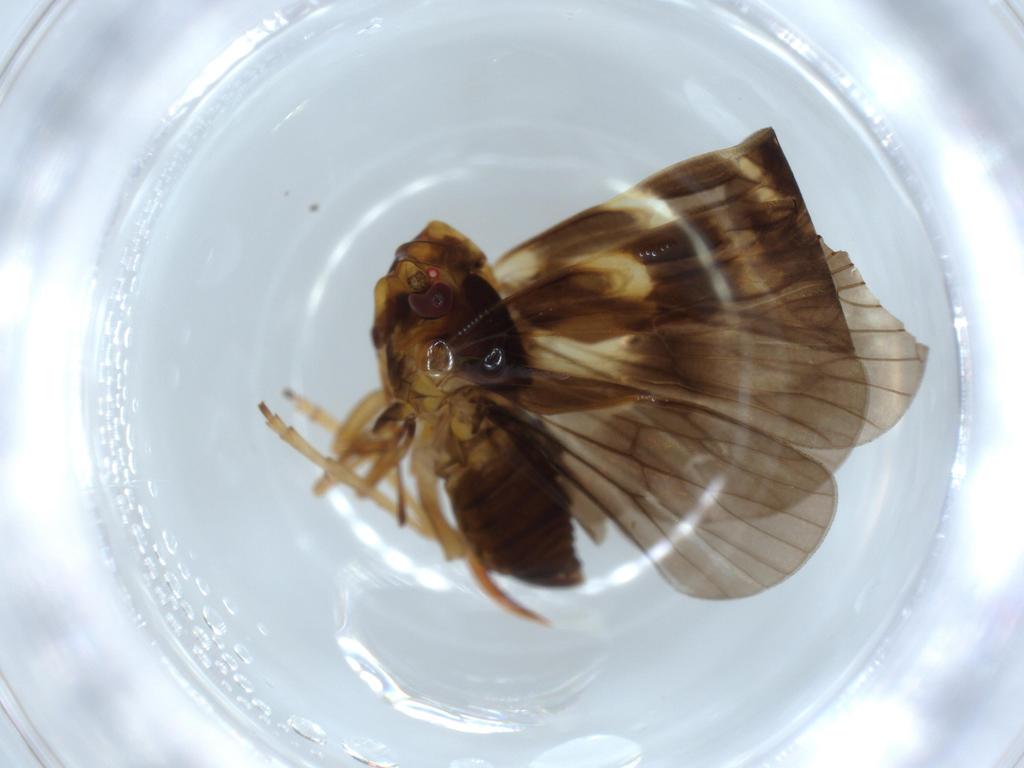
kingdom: Animalia
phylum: Arthropoda
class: Insecta
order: Hemiptera
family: Cixiidae
